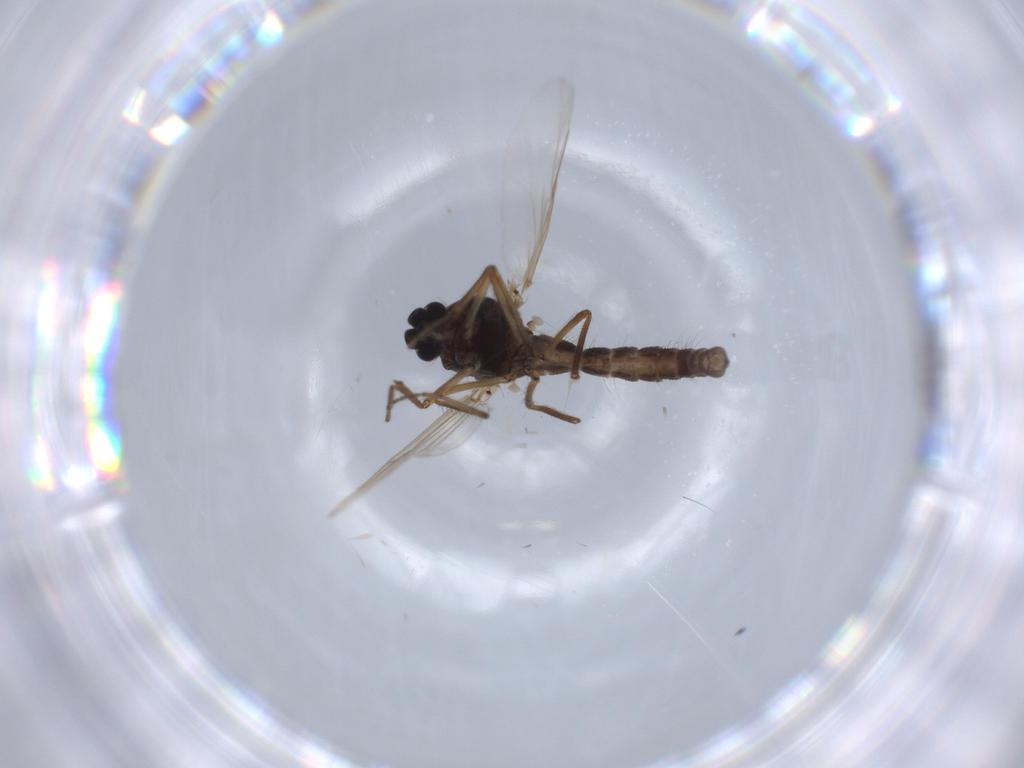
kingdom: Animalia
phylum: Arthropoda
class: Insecta
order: Diptera
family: Ceratopogonidae
